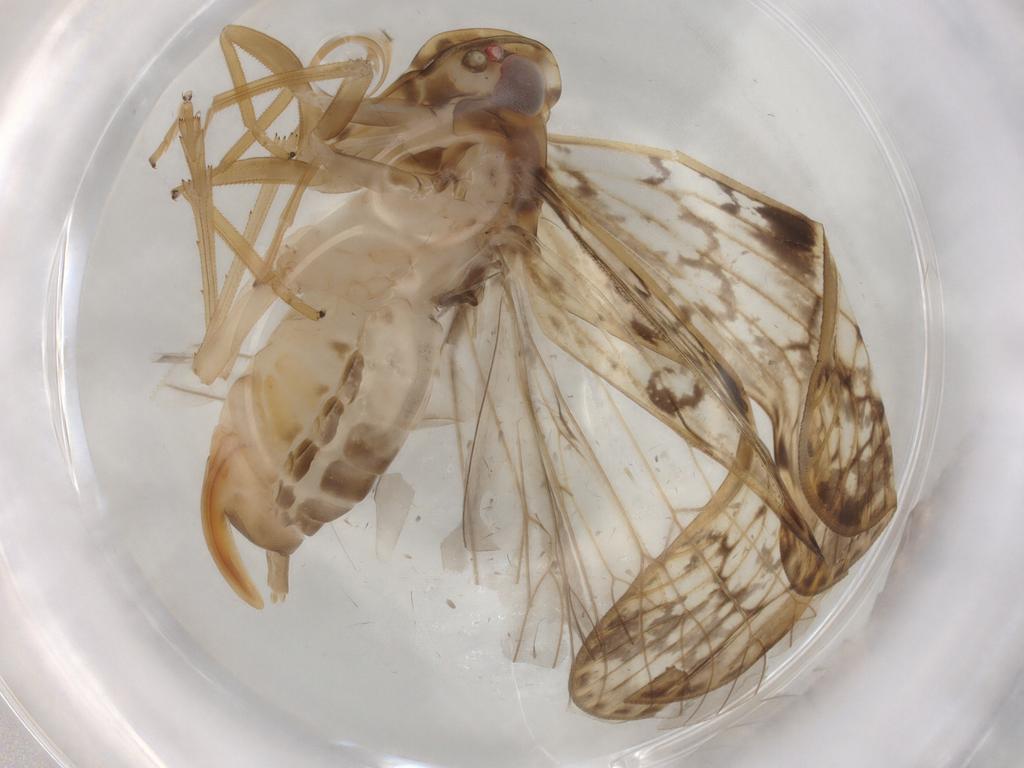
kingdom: Animalia
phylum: Arthropoda
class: Insecta
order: Hemiptera
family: Cixiidae
